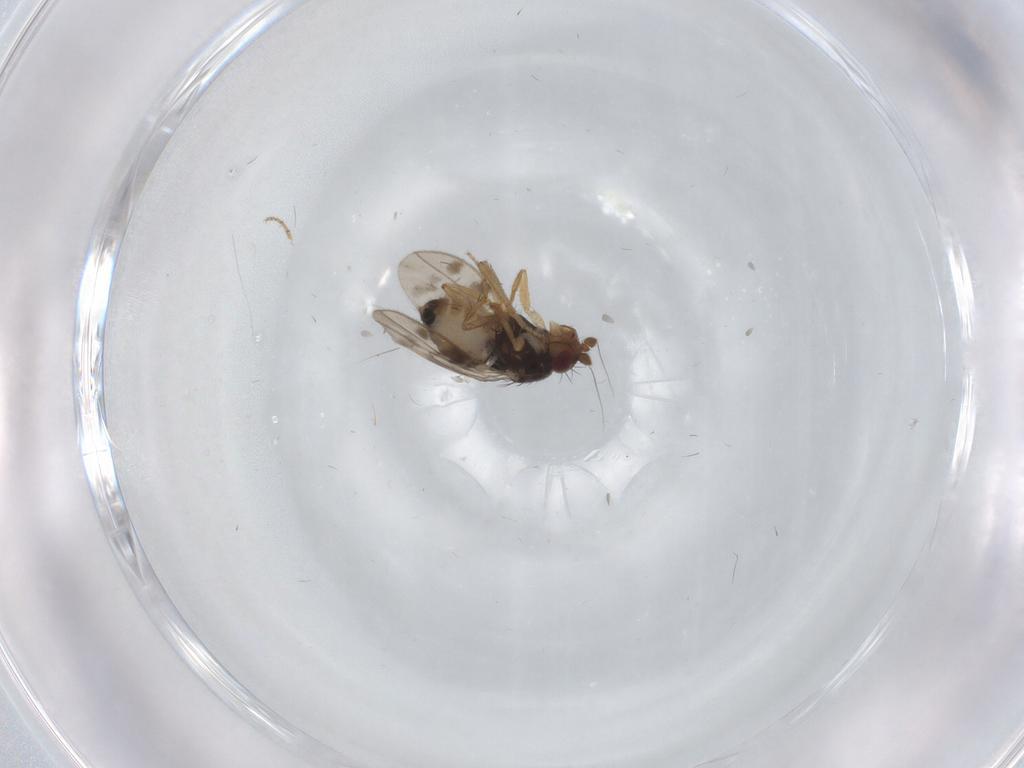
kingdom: Animalia
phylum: Arthropoda
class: Insecta
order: Diptera
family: Sphaeroceridae
